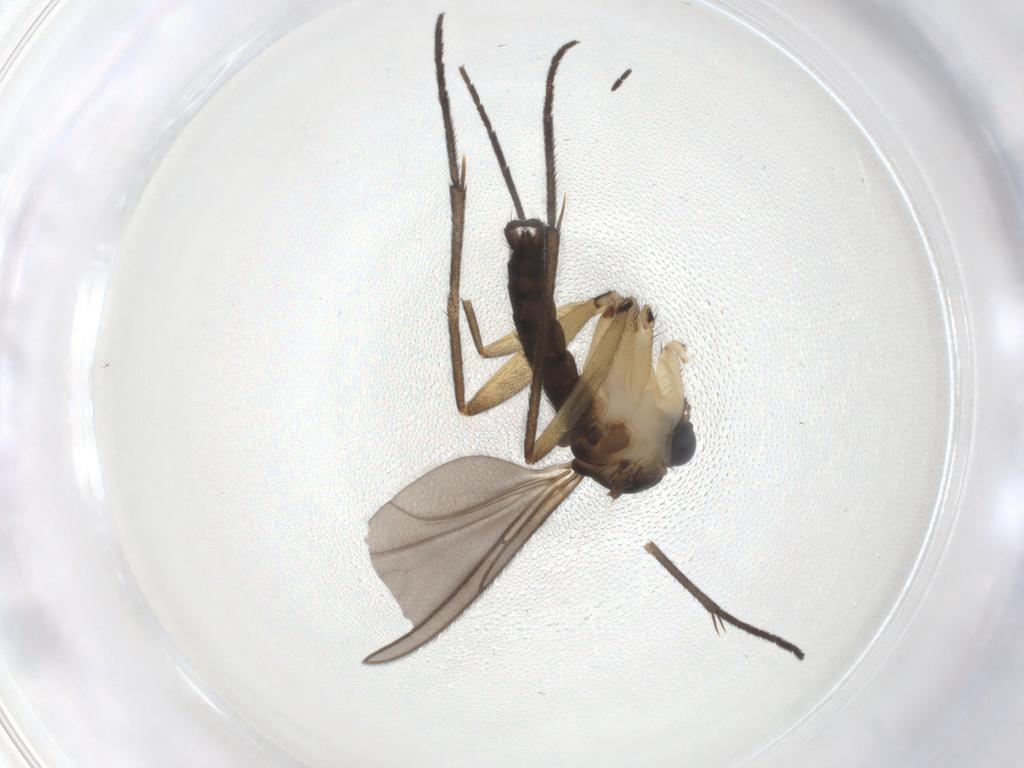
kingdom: Animalia
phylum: Arthropoda
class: Insecta
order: Diptera
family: Sciaridae
